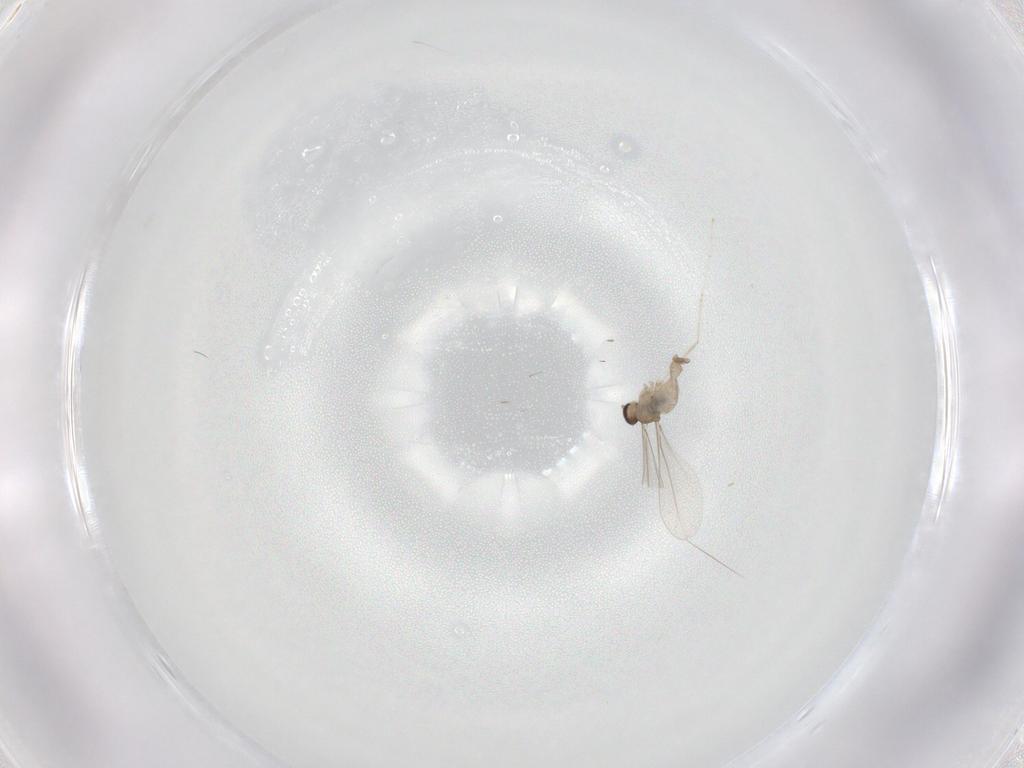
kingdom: Animalia
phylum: Arthropoda
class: Insecta
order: Diptera
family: Cecidomyiidae
